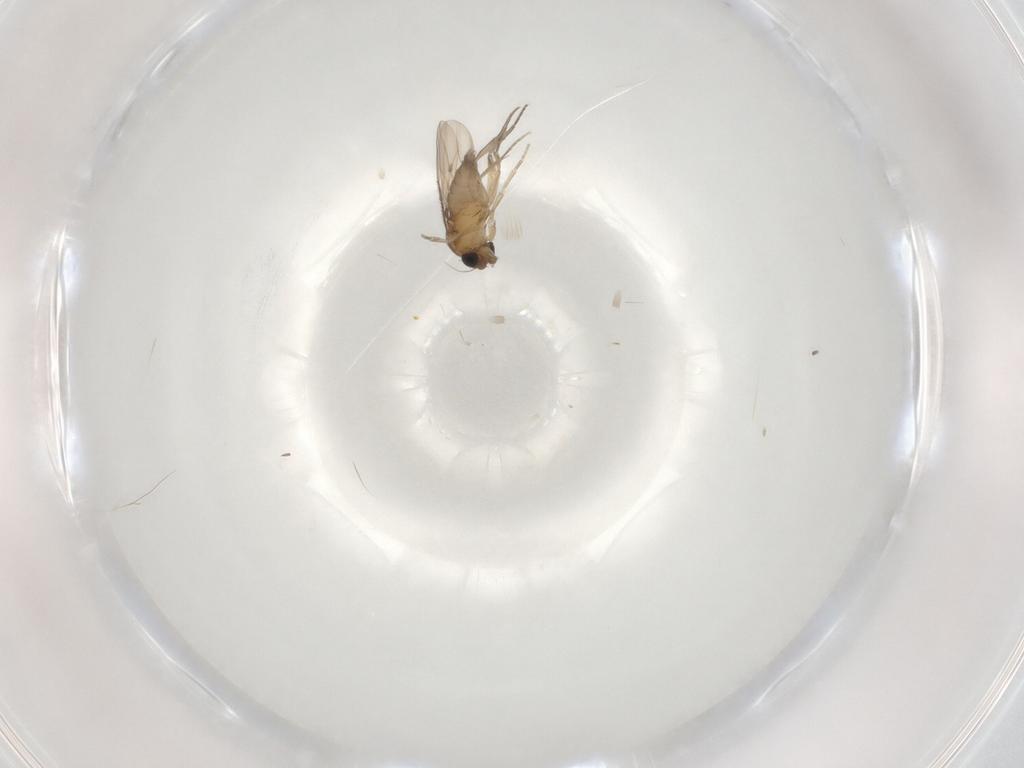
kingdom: Animalia
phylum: Arthropoda
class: Insecta
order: Diptera
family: Phoridae
